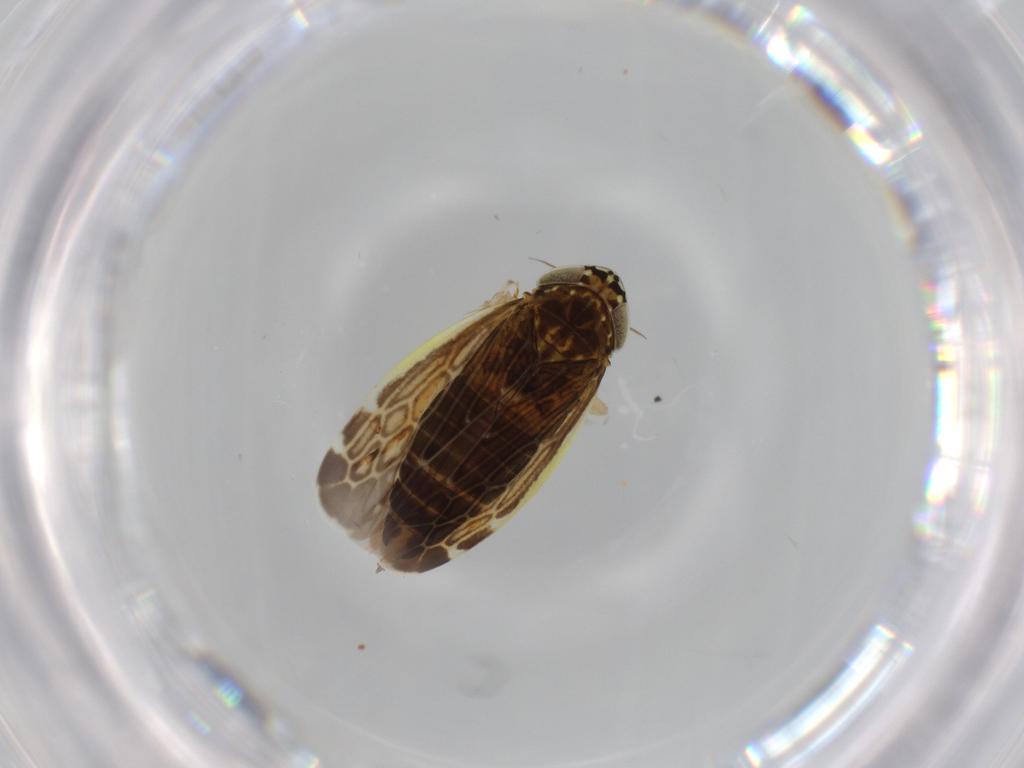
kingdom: Animalia
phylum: Arthropoda
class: Insecta
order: Hemiptera
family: Cicadellidae
